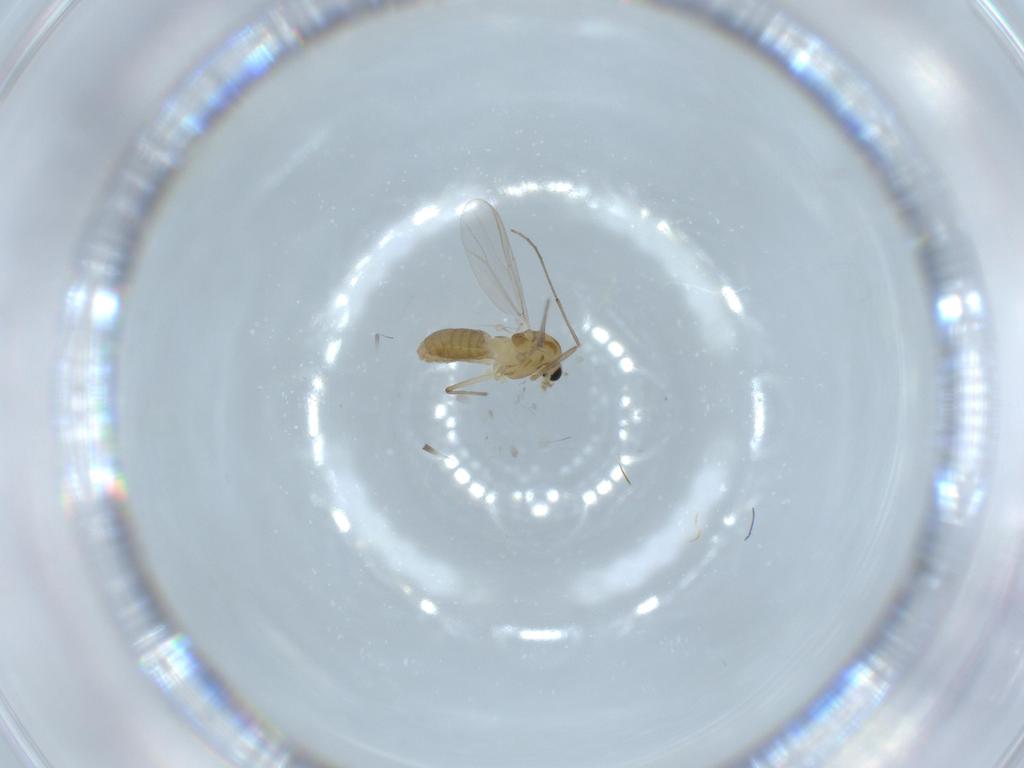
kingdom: Animalia
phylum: Arthropoda
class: Insecta
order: Diptera
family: Chironomidae
